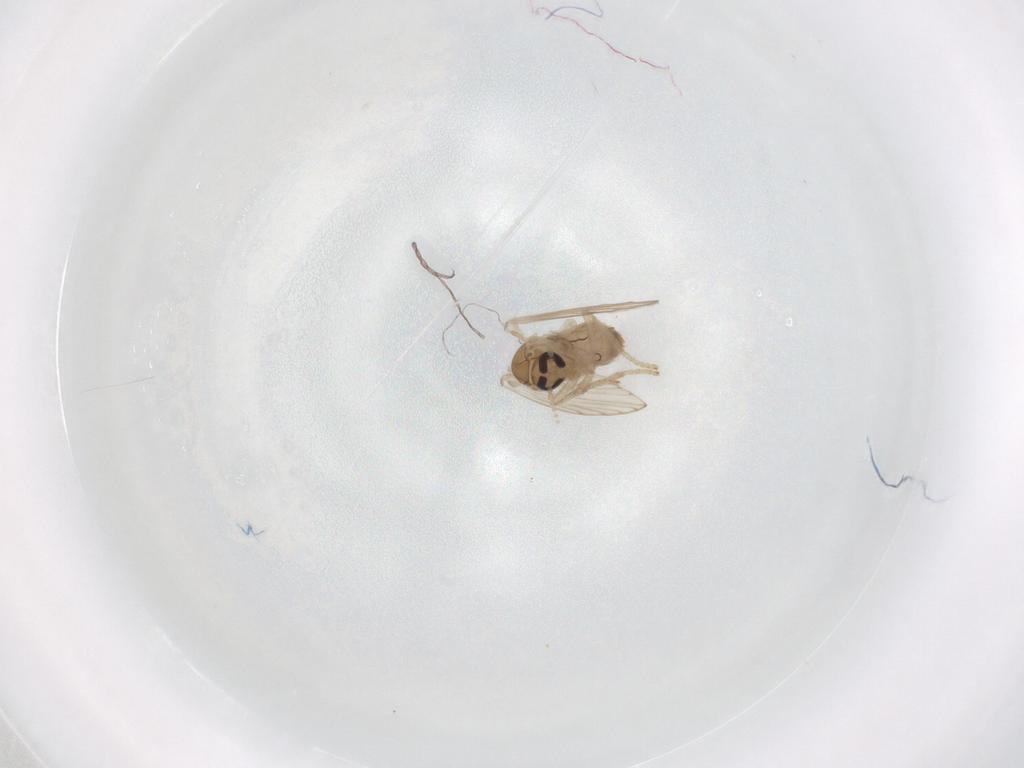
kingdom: Animalia
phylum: Arthropoda
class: Insecta
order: Diptera
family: Psychodidae
